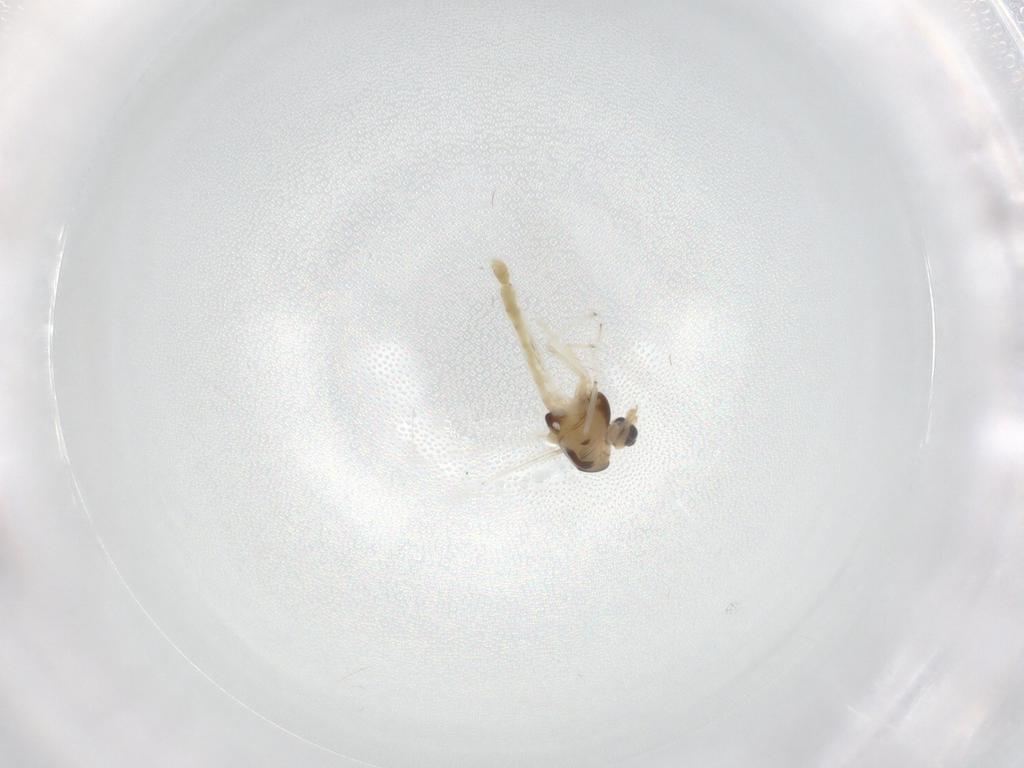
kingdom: Animalia
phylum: Arthropoda
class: Insecta
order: Diptera
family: Chironomidae
